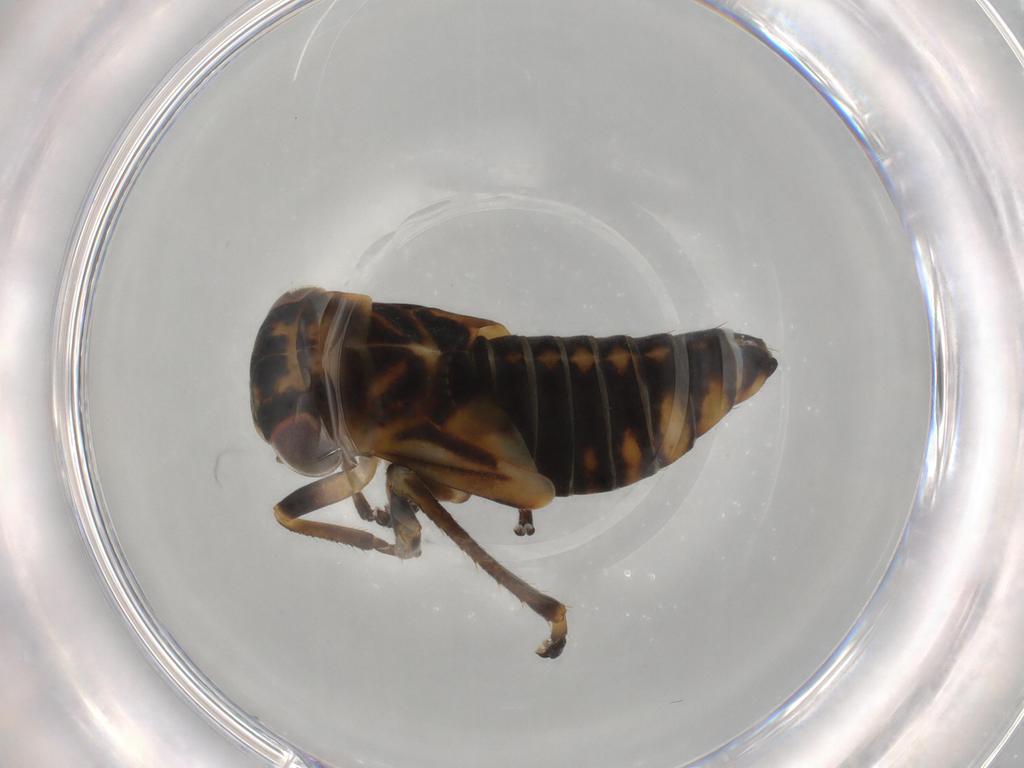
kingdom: Animalia
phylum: Arthropoda
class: Insecta
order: Hemiptera
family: Cicadellidae
